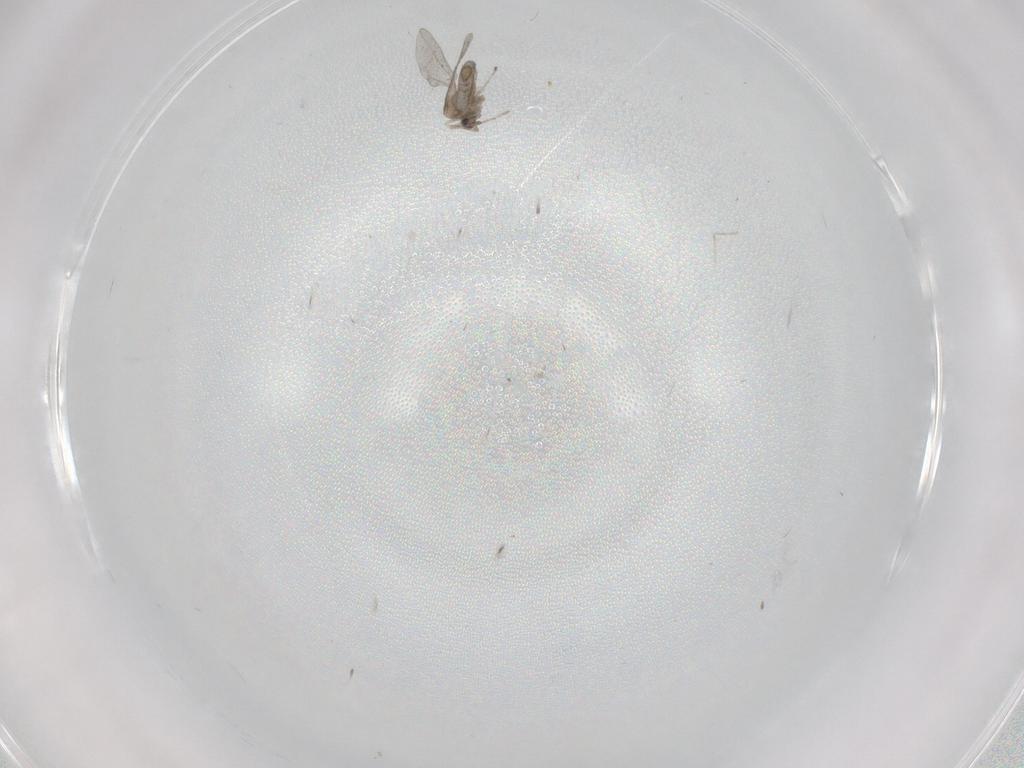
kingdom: Animalia
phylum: Arthropoda
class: Insecta
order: Diptera
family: Cecidomyiidae
